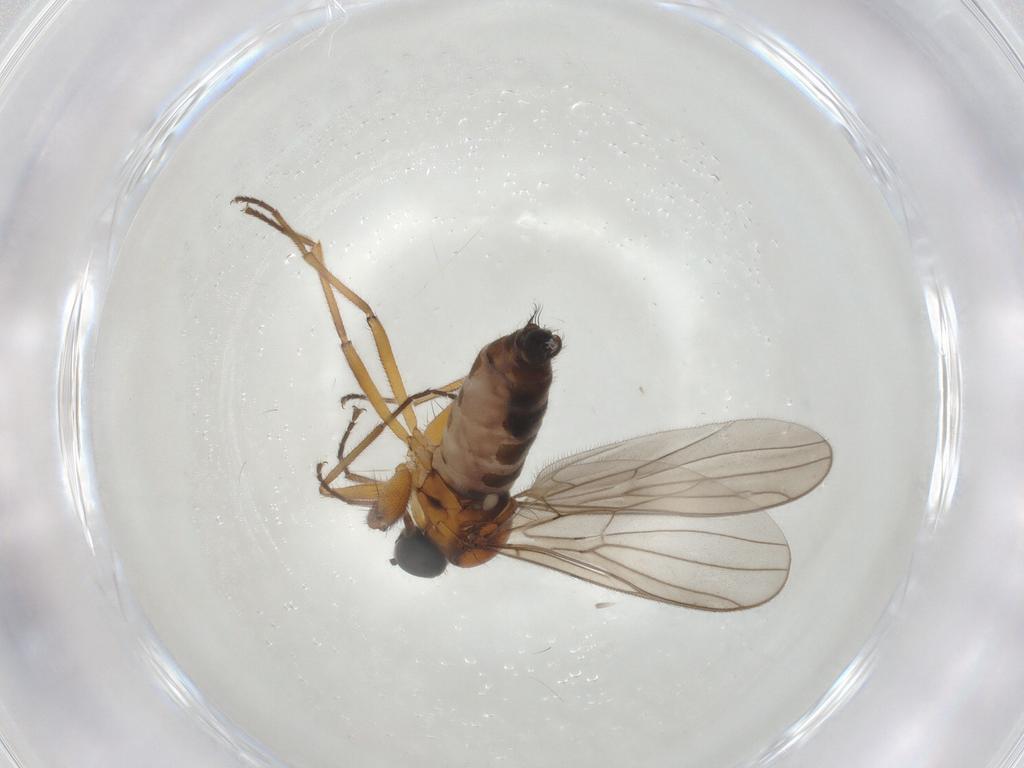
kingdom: Animalia
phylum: Arthropoda
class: Insecta
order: Diptera
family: Hybotidae
